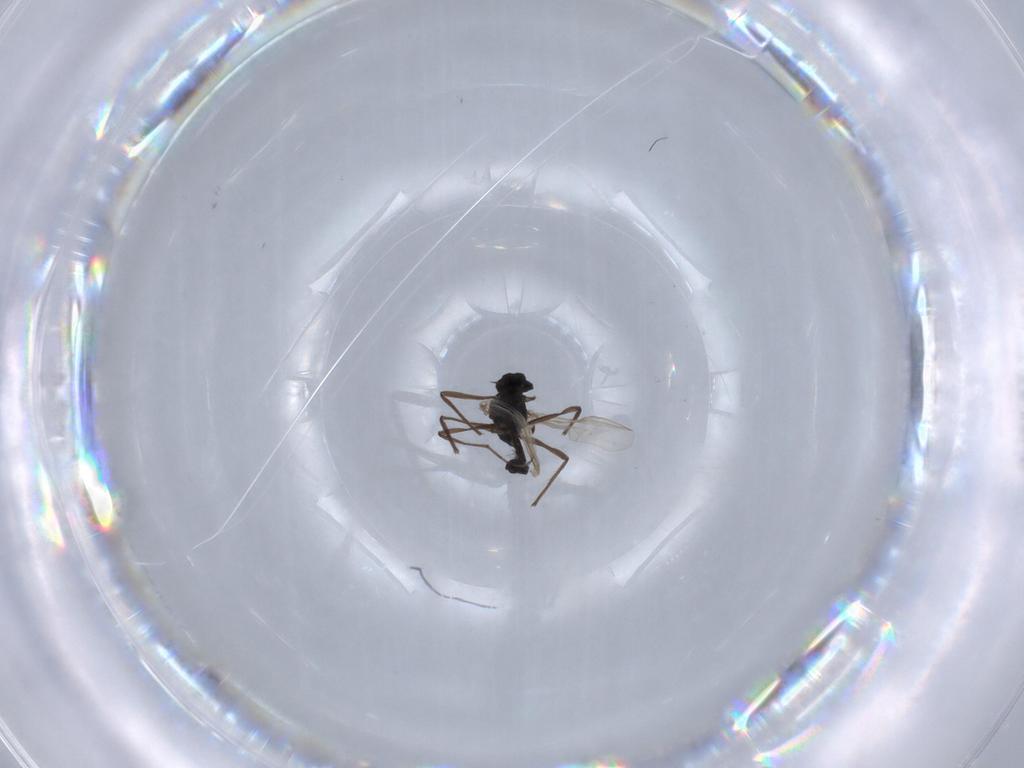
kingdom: Animalia
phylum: Arthropoda
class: Insecta
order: Diptera
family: Chironomidae
